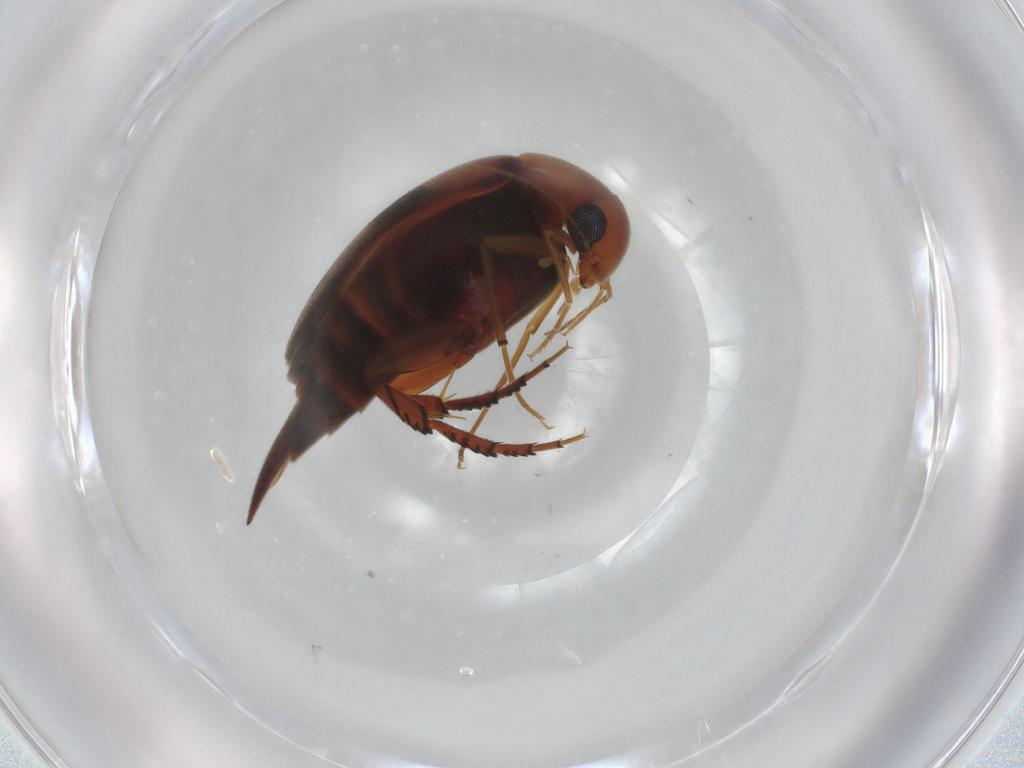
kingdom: Animalia
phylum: Arthropoda
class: Insecta
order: Coleoptera
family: Mordellidae
